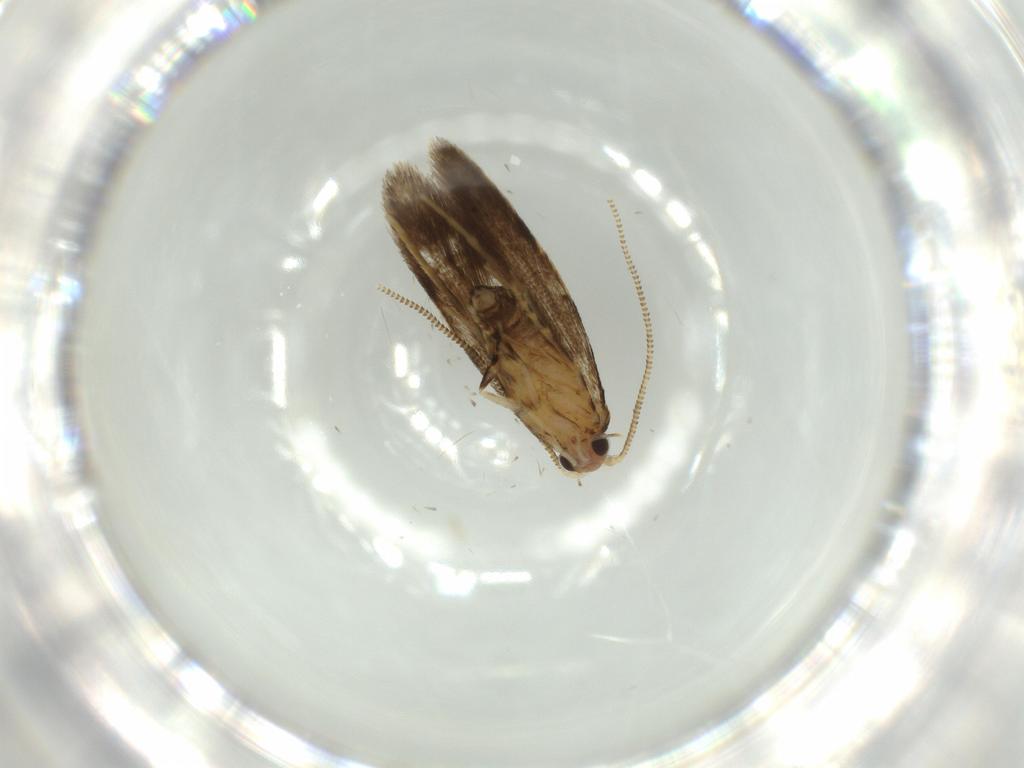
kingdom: Animalia
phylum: Arthropoda
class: Insecta
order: Lepidoptera
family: Tineidae
